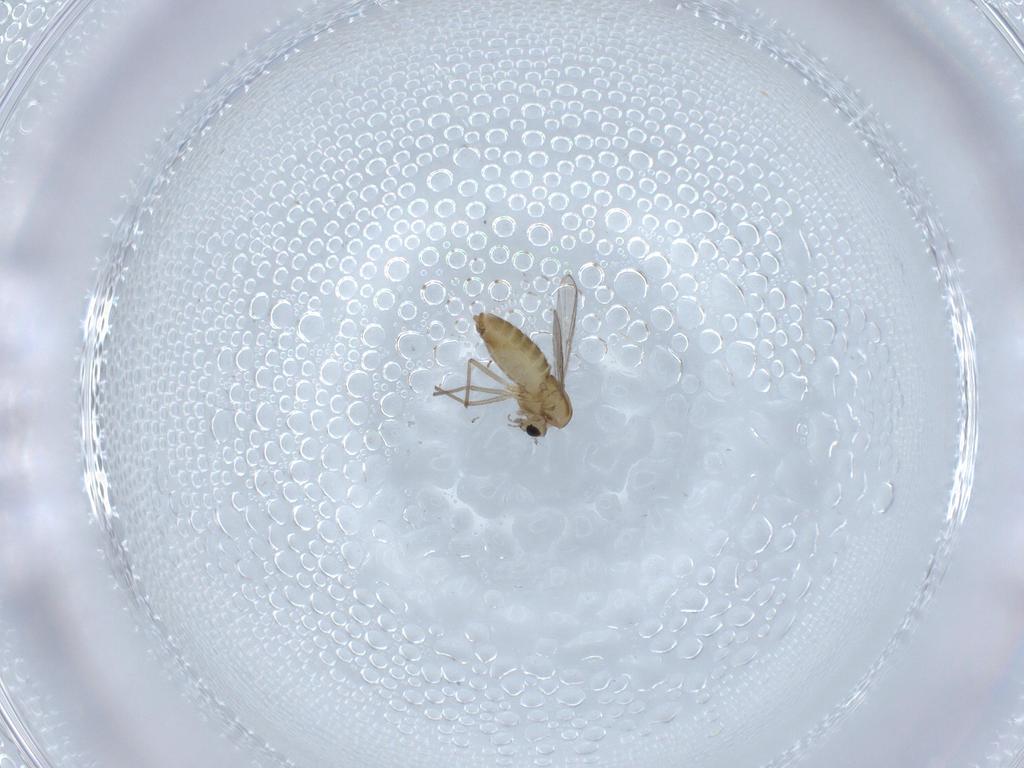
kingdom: Animalia
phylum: Arthropoda
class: Insecta
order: Diptera
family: Chironomidae
